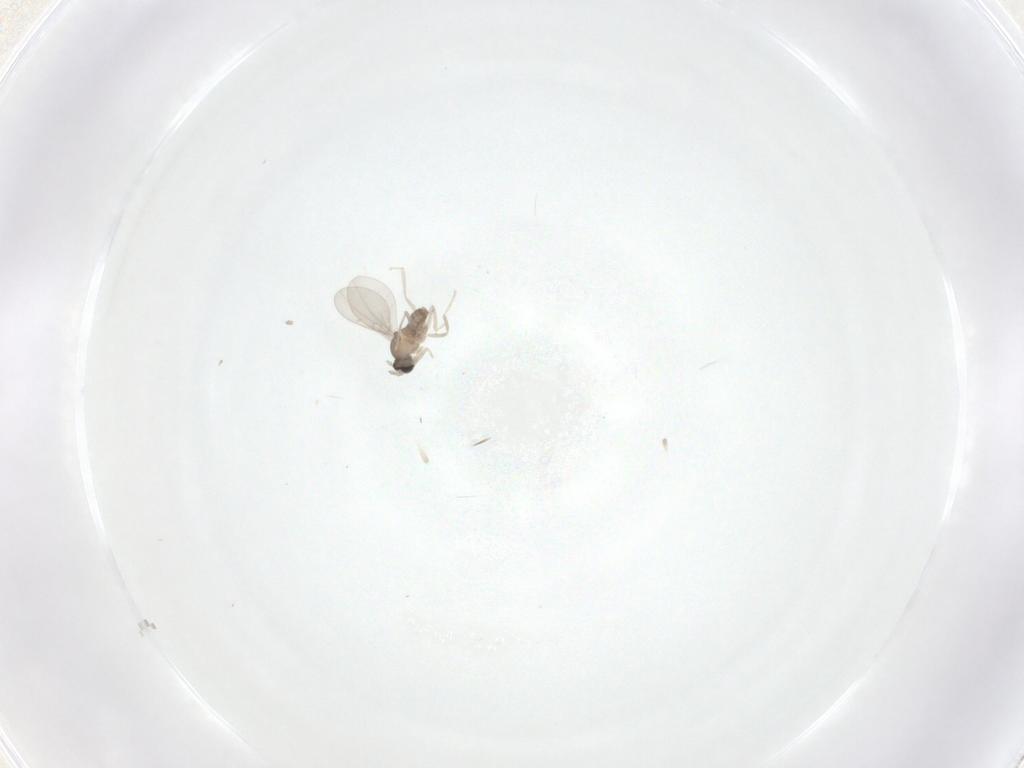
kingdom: Animalia
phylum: Arthropoda
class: Insecta
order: Diptera
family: Cecidomyiidae
